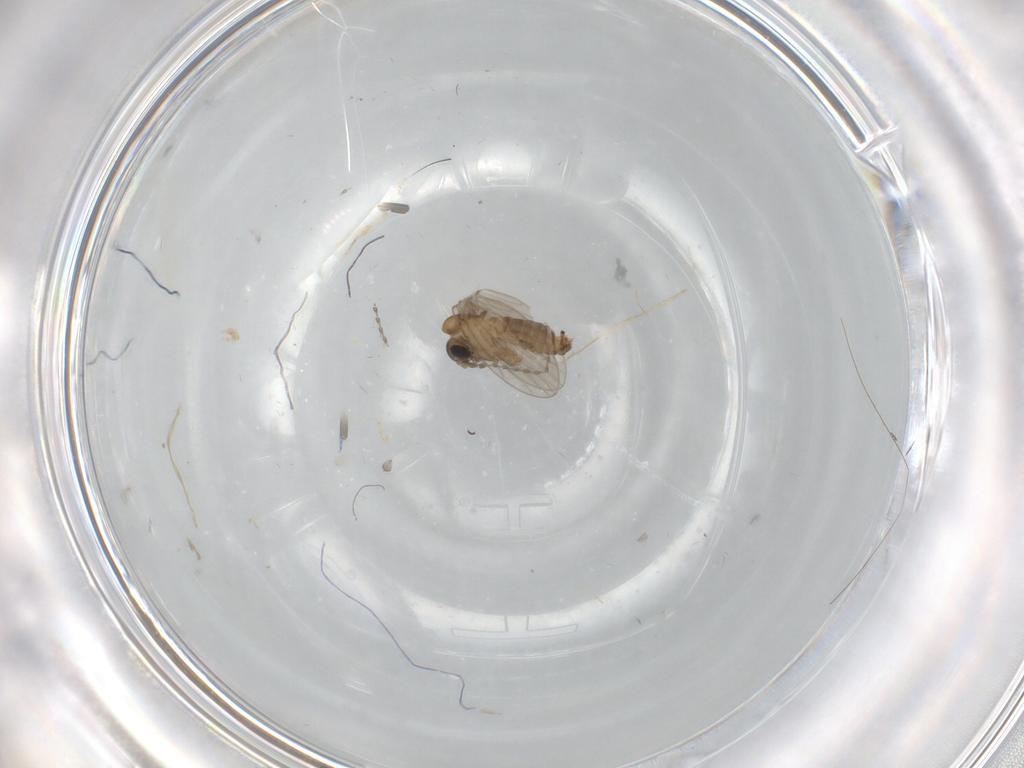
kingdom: Animalia
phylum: Arthropoda
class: Insecta
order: Diptera
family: Psychodidae
